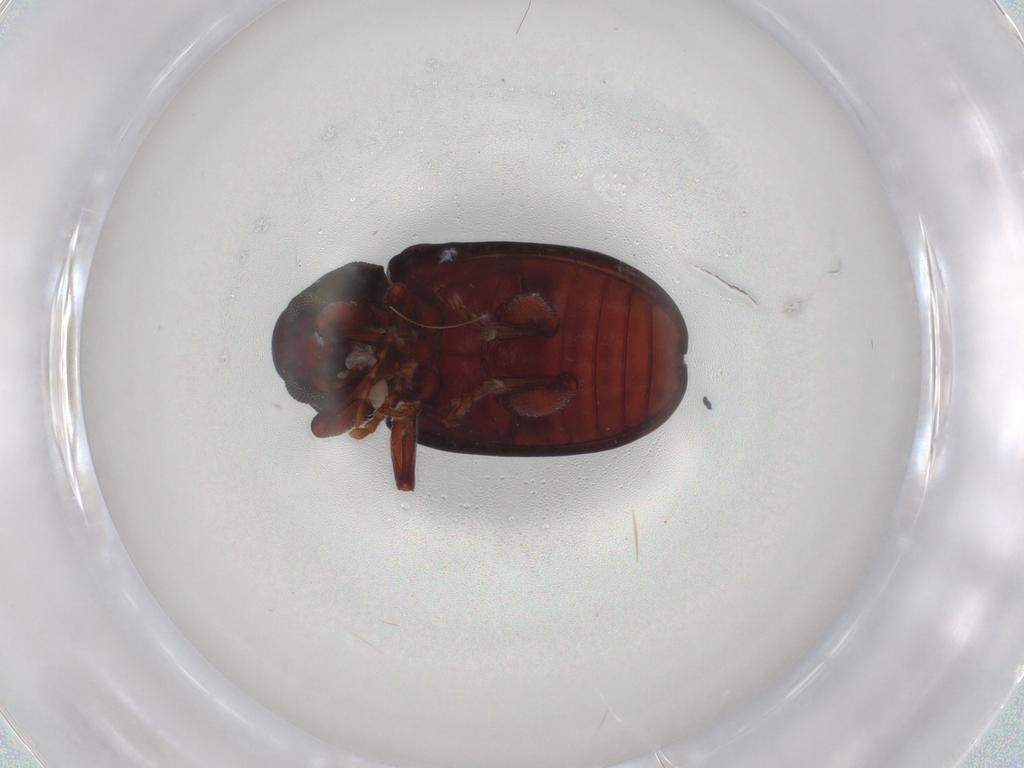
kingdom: Animalia
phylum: Arthropoda
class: Insecta
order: Coleoptera
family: Chrysomelidae
